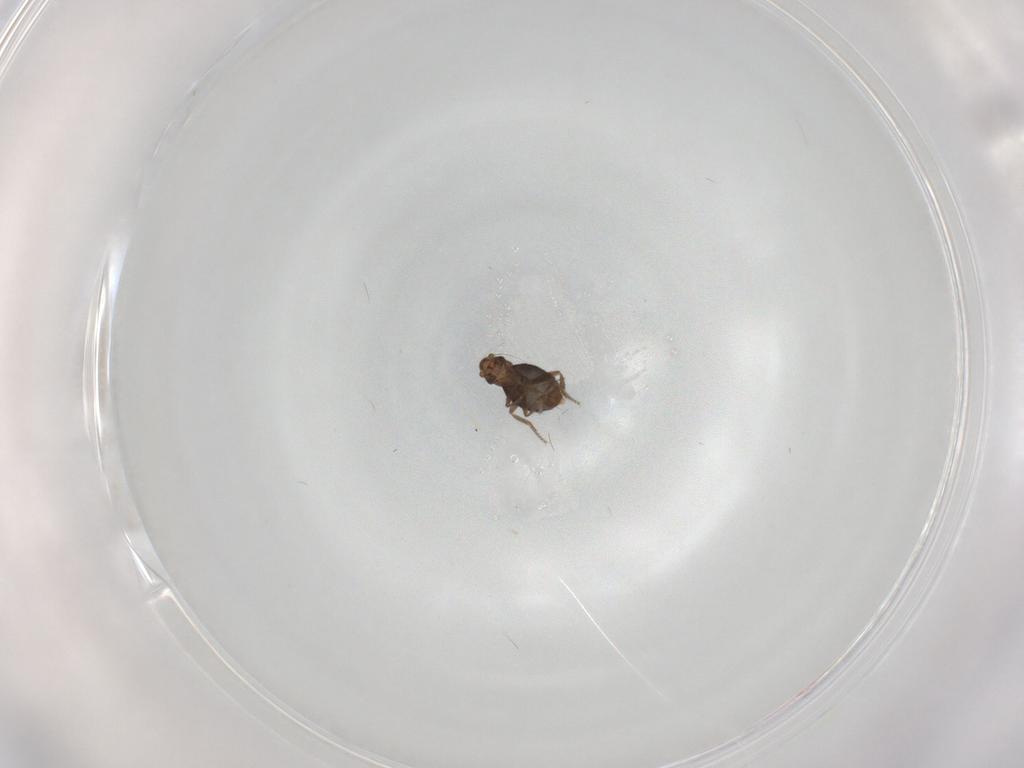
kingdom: Animalia
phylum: Arthropoda
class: Insecta
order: Diptera
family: Phoridae
